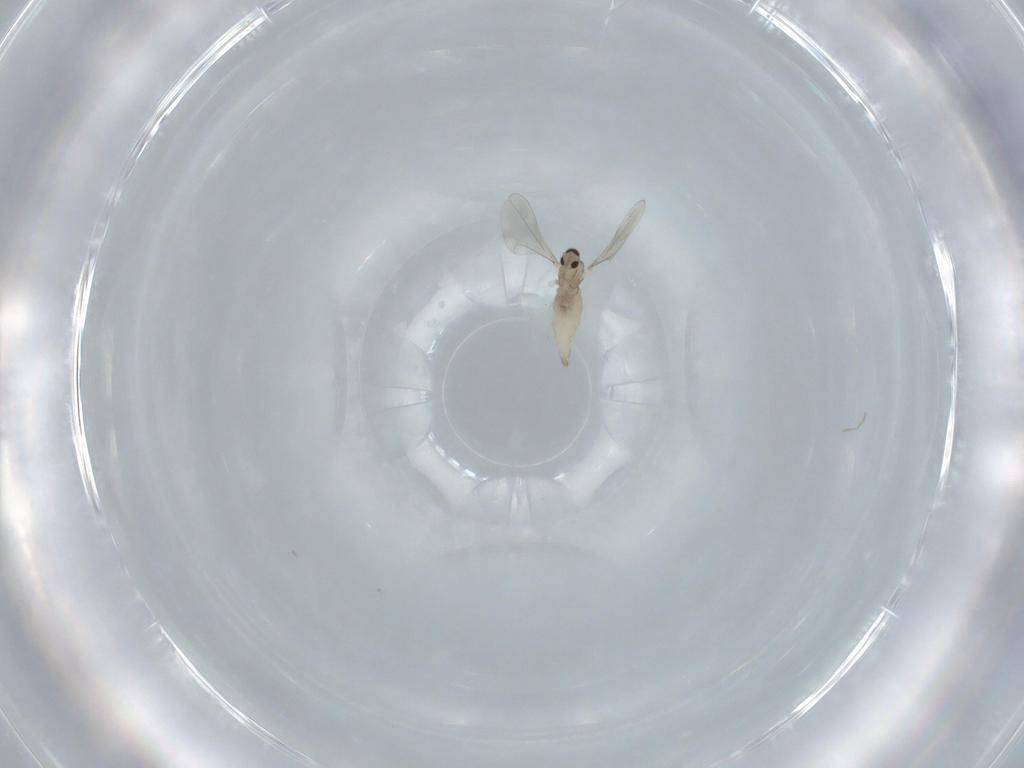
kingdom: Animalia
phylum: Arthropoda
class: Insecta
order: Diptera
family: Cecidomyiidae
